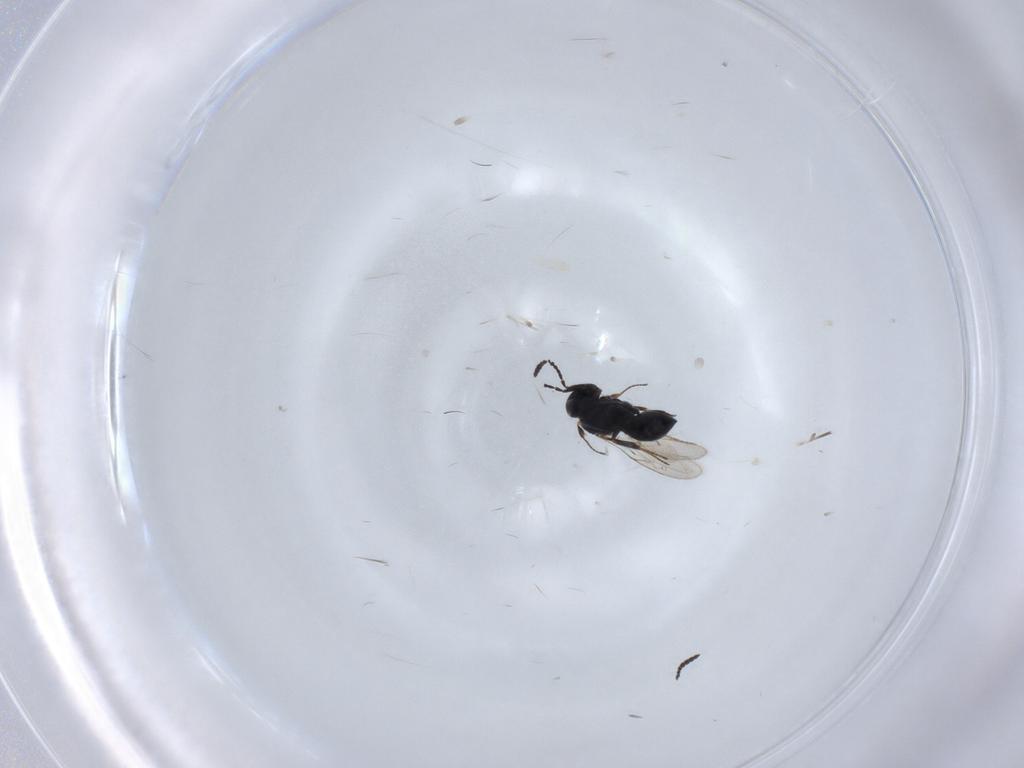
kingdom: Animalia
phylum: Arthropoda
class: Insecta
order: Hymenoptera
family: Scelionidae
